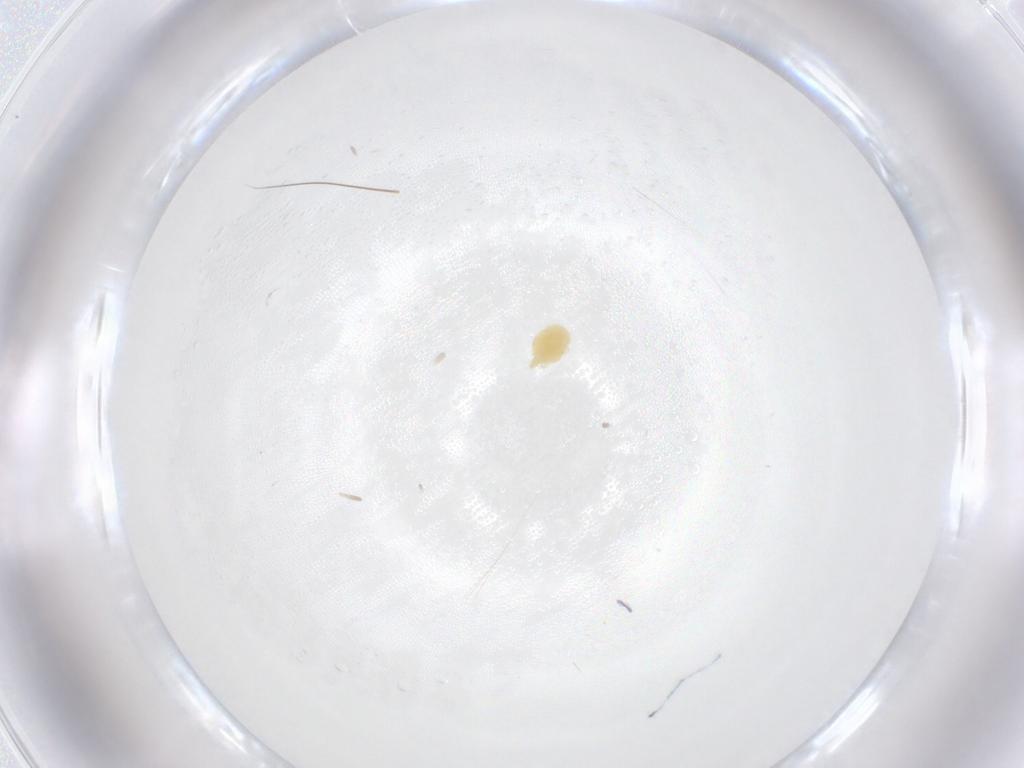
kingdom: Animalia
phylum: Arthropoda
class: Arachnida
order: Trombidiformes
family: Tetranychidae
